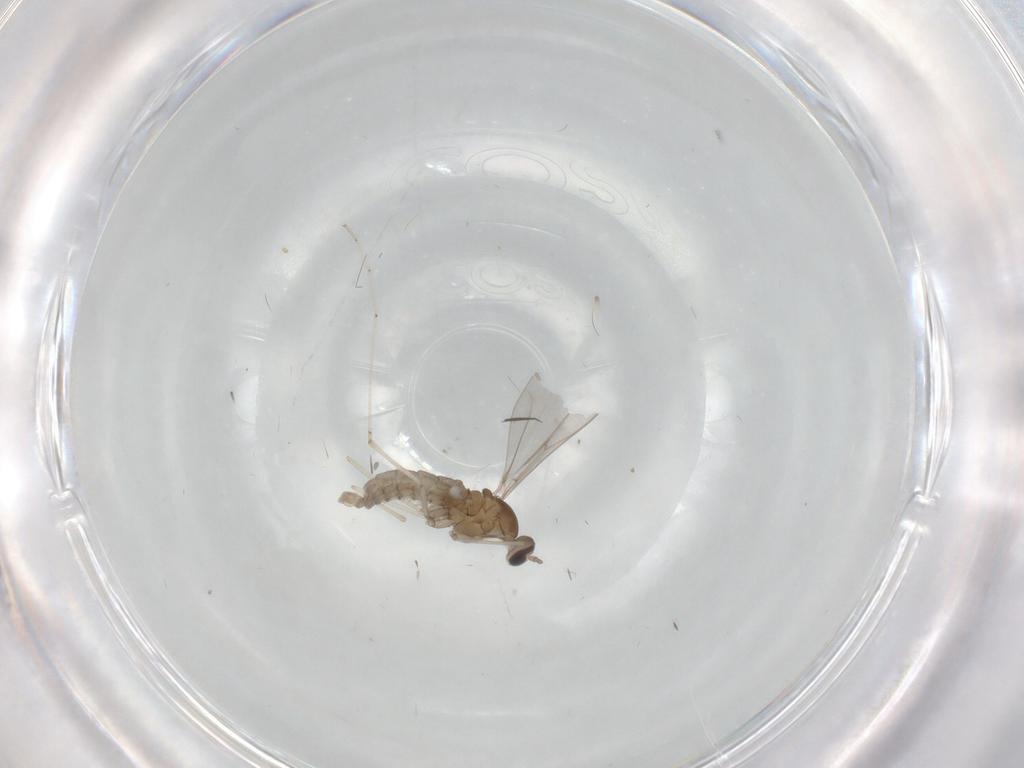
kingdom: Animalia
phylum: Arthropoda
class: Insecta
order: Diptera
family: Cecidomyiidae
